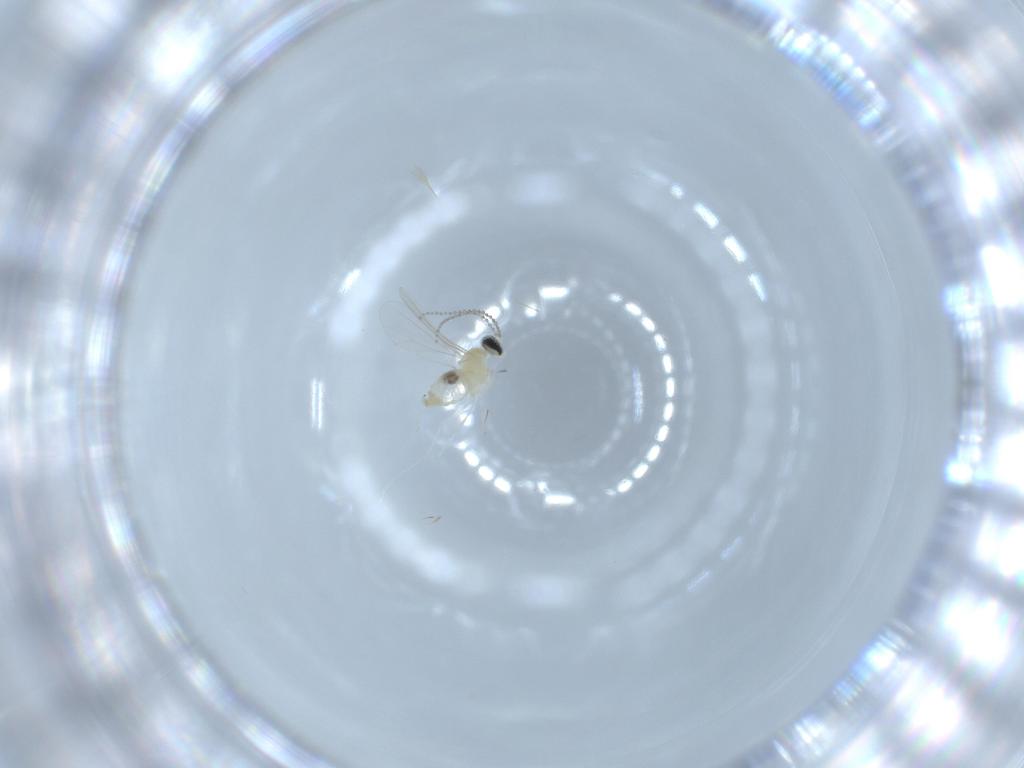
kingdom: Animalia
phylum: Arthropoda
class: Insecta
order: Diptera
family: Cecidomyiidae
